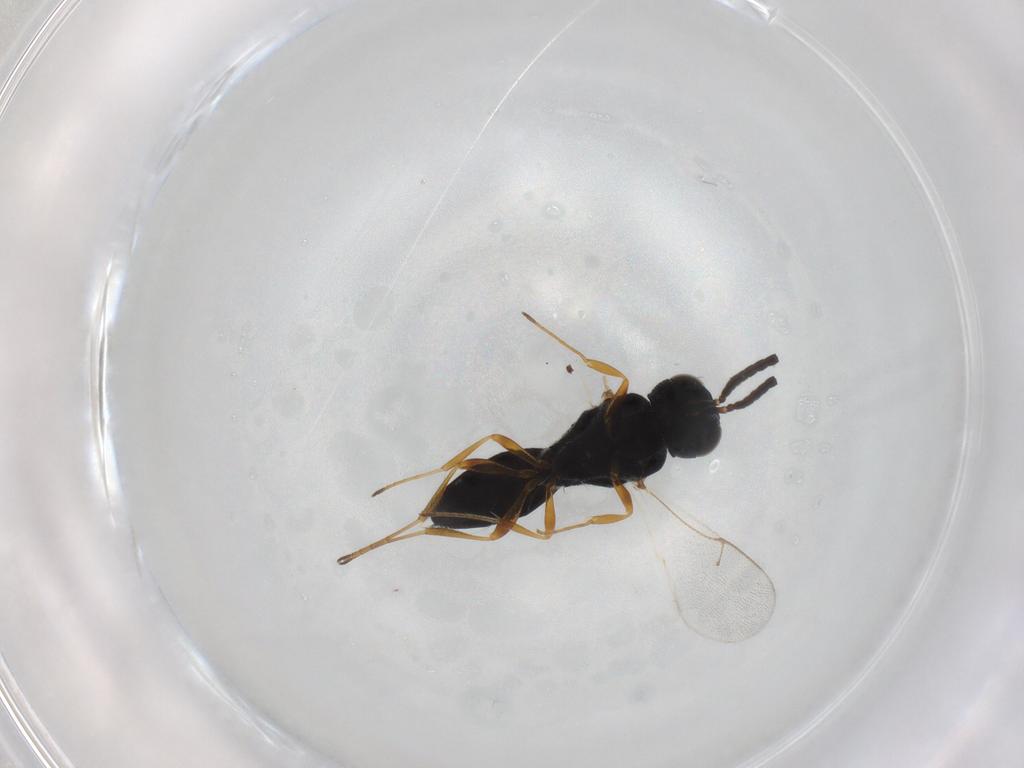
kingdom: Animalia
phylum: Arthropoda
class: Insecta
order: Hymenoptera
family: Scelionidae
